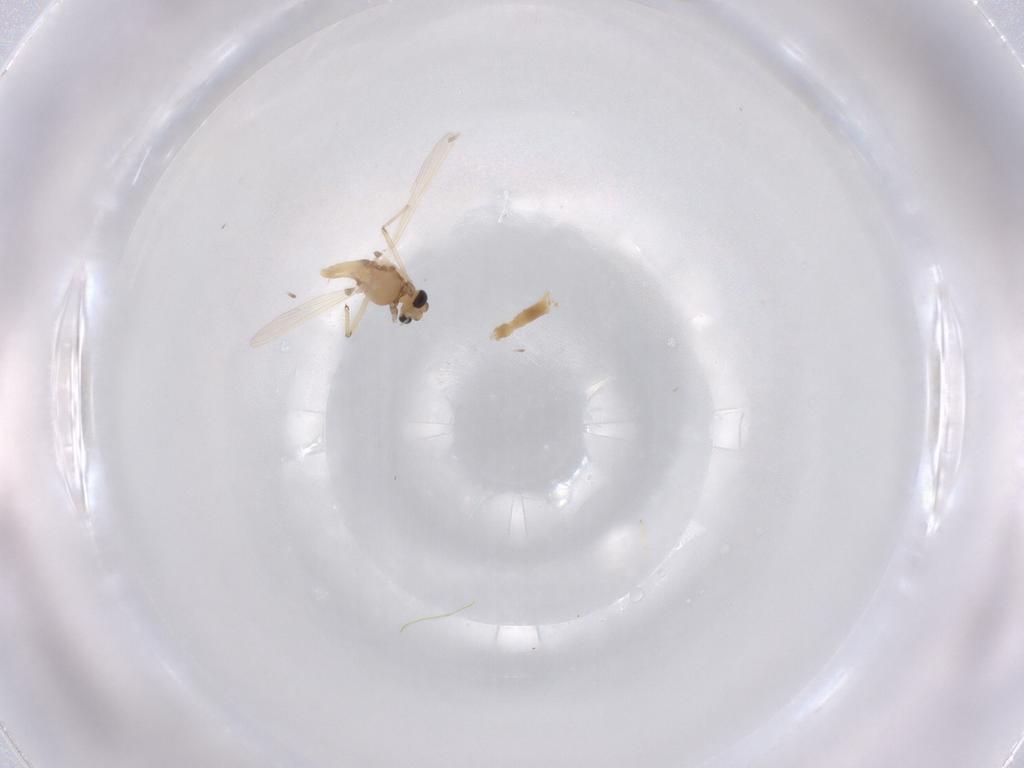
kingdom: Animalia
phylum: Arthropoda
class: Insecta
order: Diptera
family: Chironomidae
